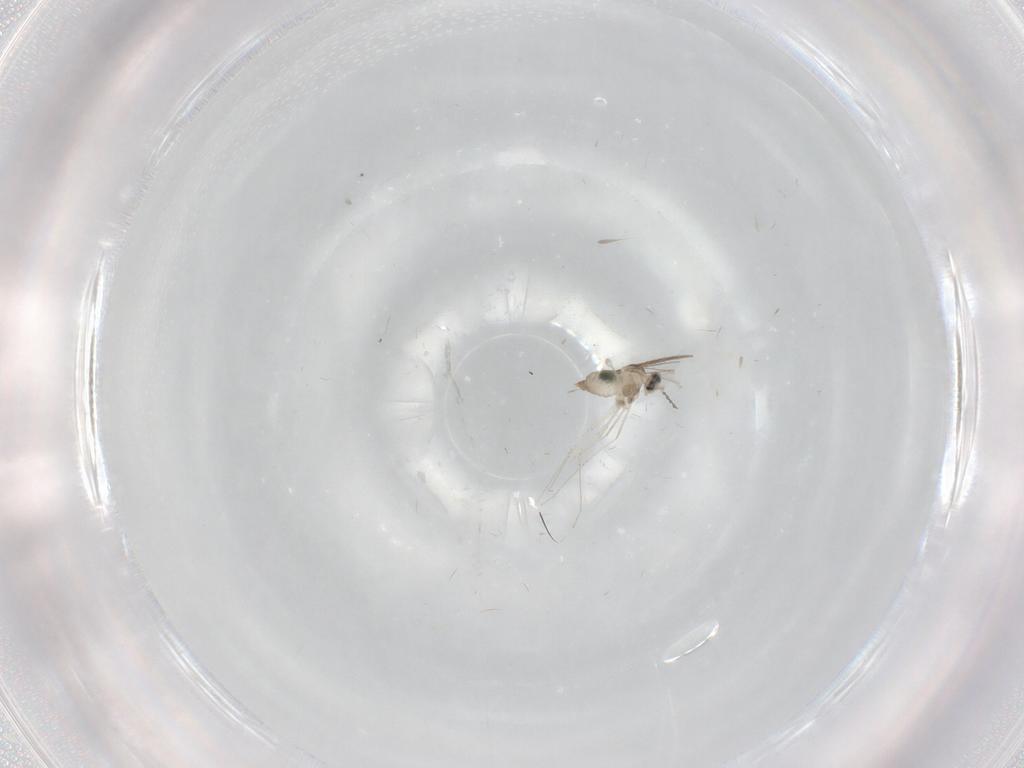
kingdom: Animalia
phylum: Arthropoda
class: Insecta
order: Diptera
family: Cecidomyiidae
